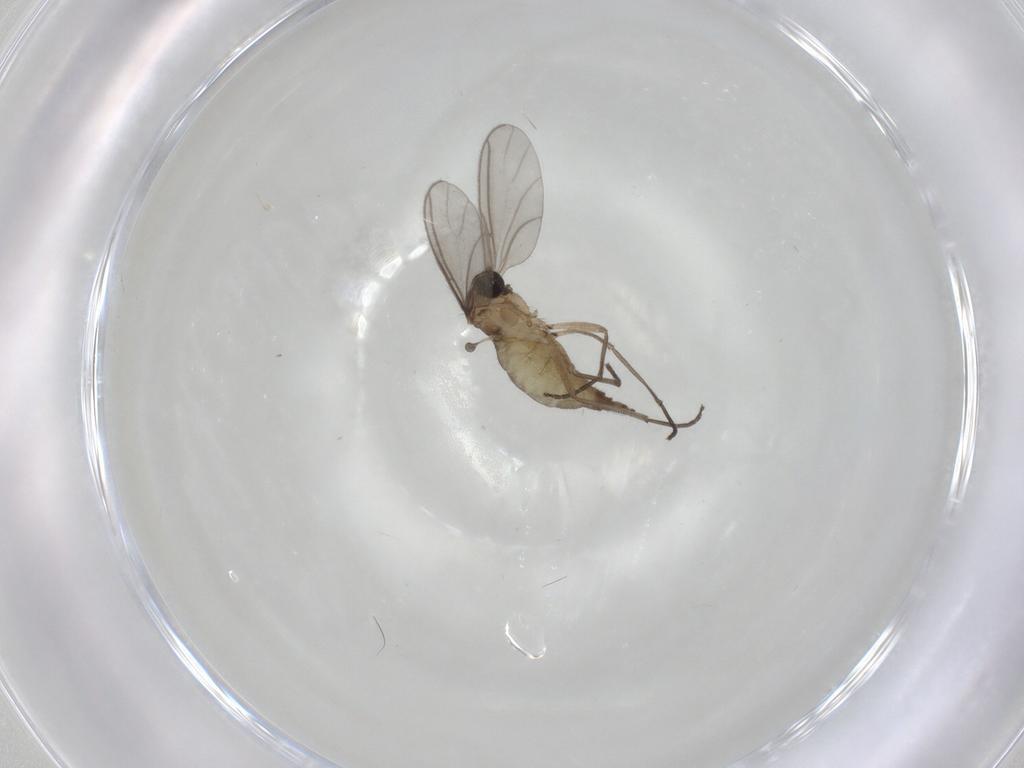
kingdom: Animalia
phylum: Arthropoda
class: Insecta
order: Diptera
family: Sciaridae
